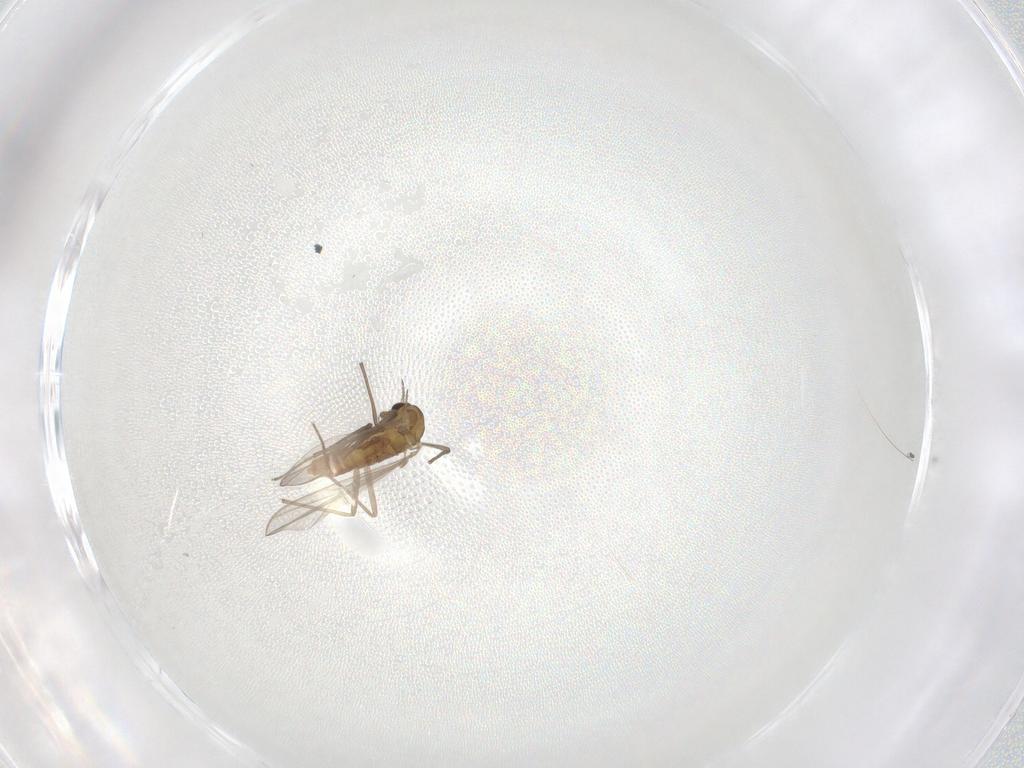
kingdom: Animalia
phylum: Arthropoda
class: Insecta
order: Diptera
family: Chironomidae
